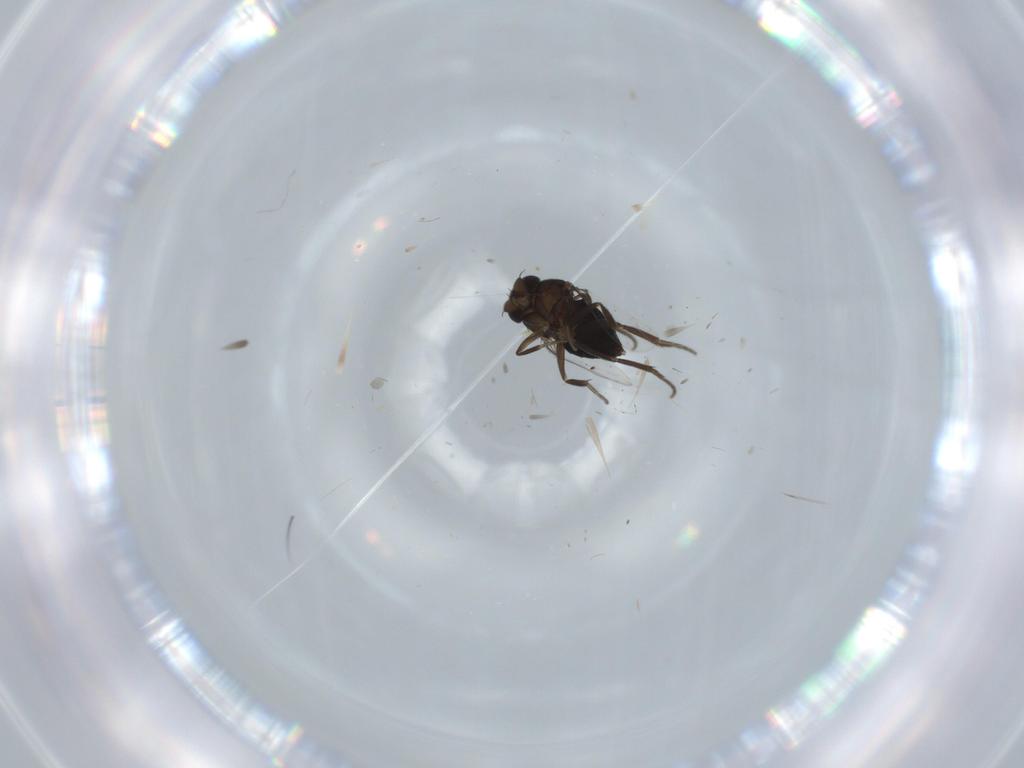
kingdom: Animalia
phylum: Arthropoda
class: Insecta
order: Diptera
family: Phoridae
